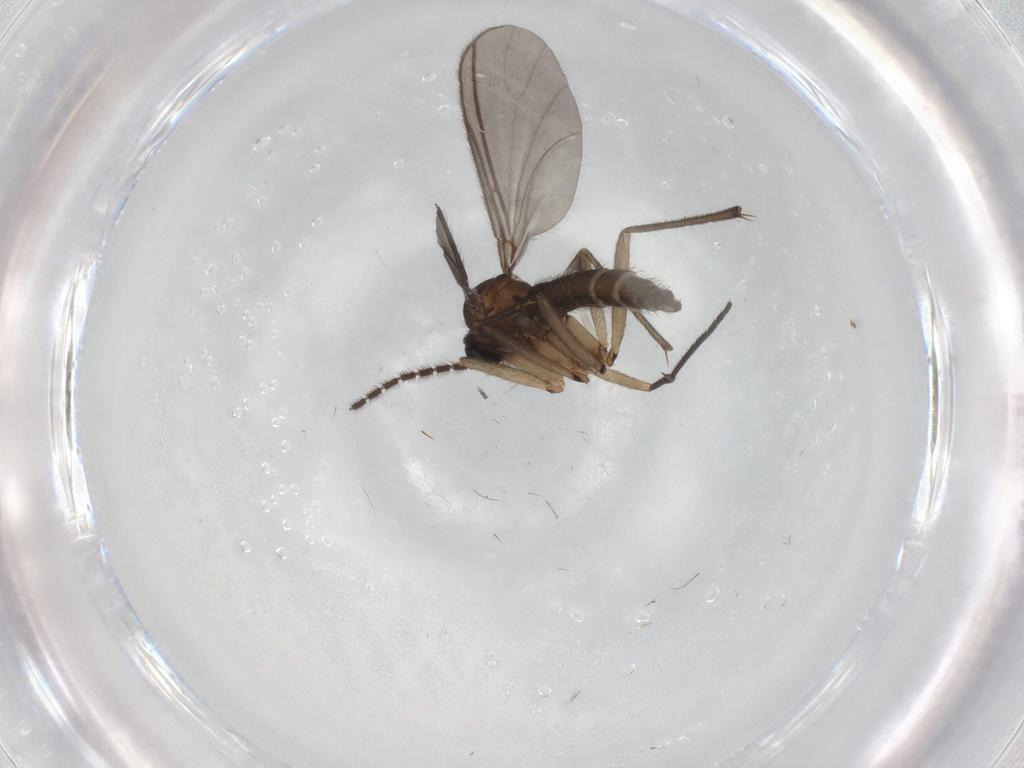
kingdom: Animalia
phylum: Arthropoda
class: Insecta
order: Diptera
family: Sciaridae
